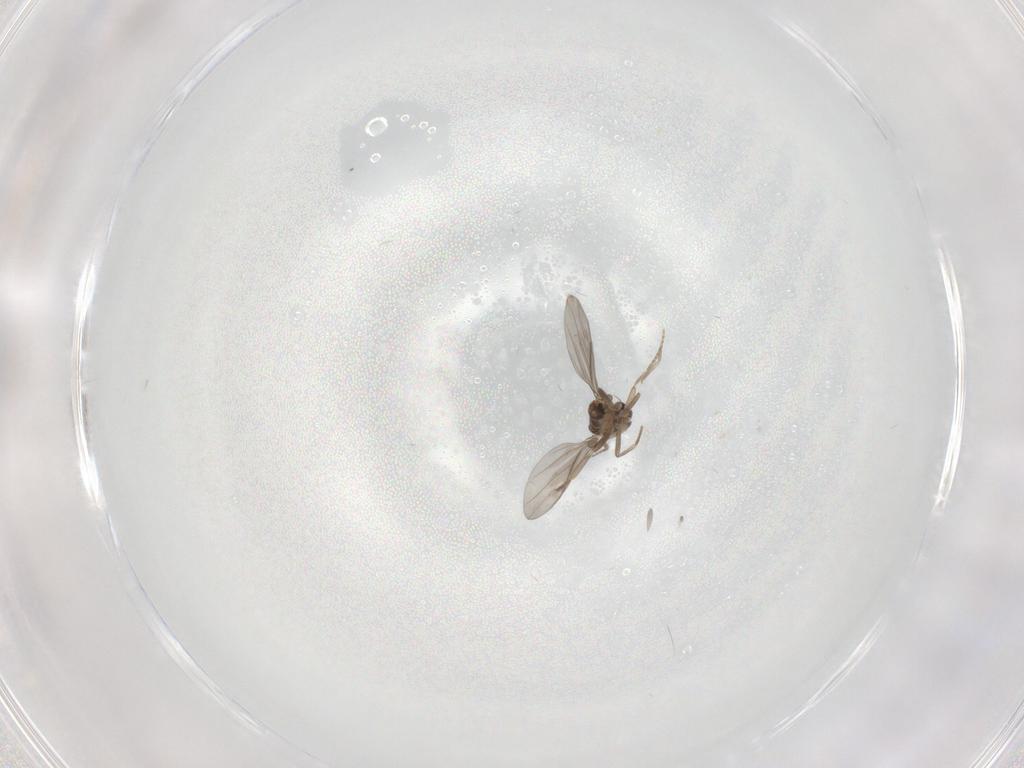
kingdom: Animalia
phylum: Arthropoda
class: Insecta
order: Diptera
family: Chironomidae
